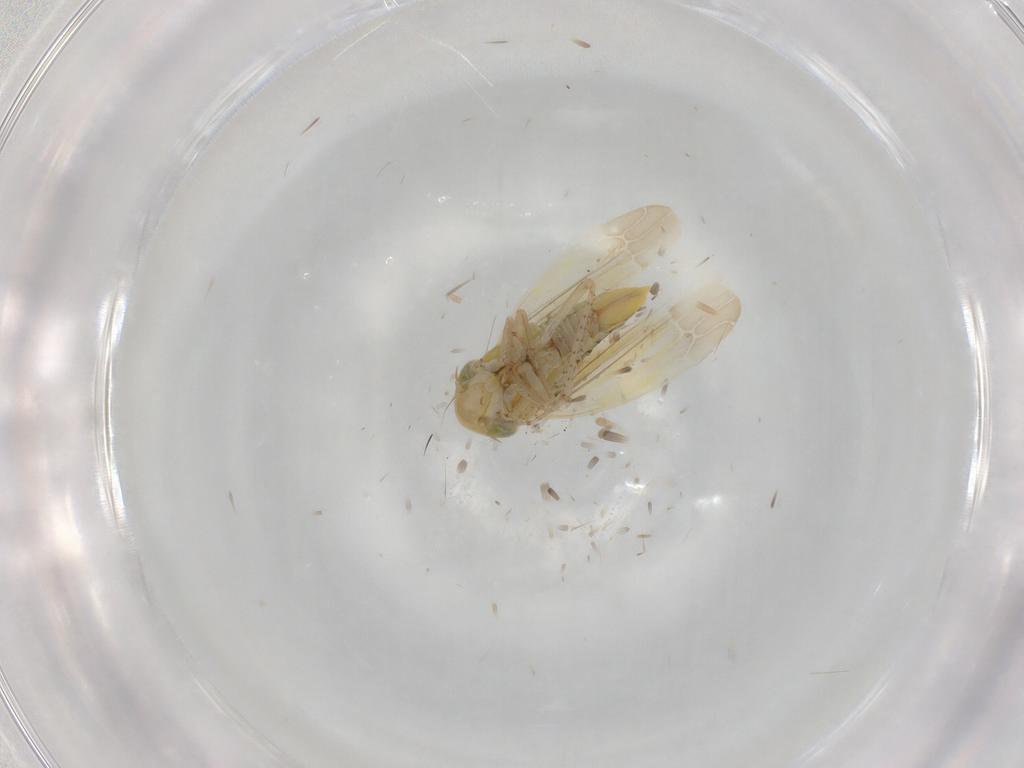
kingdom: Animalia
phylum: Arthropoda
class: Insecta
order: Hemiptera
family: Cicadellidae
